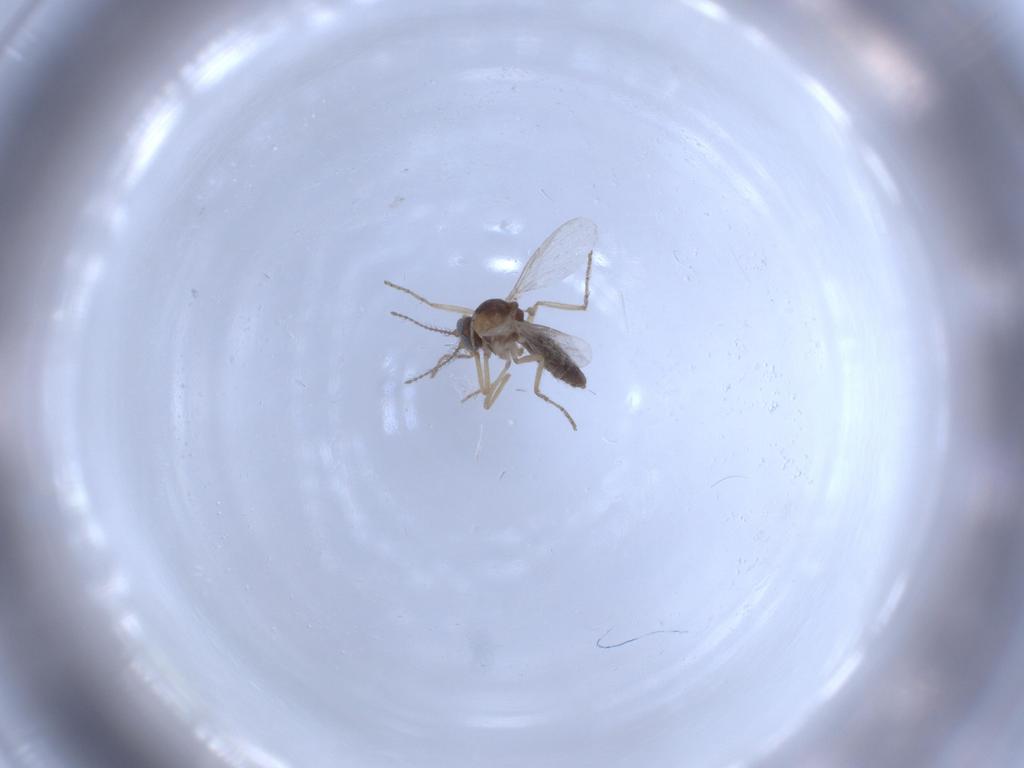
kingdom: Animalia
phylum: Arthropoda
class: Insecta
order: Diptera
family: Ceratopogonidae
